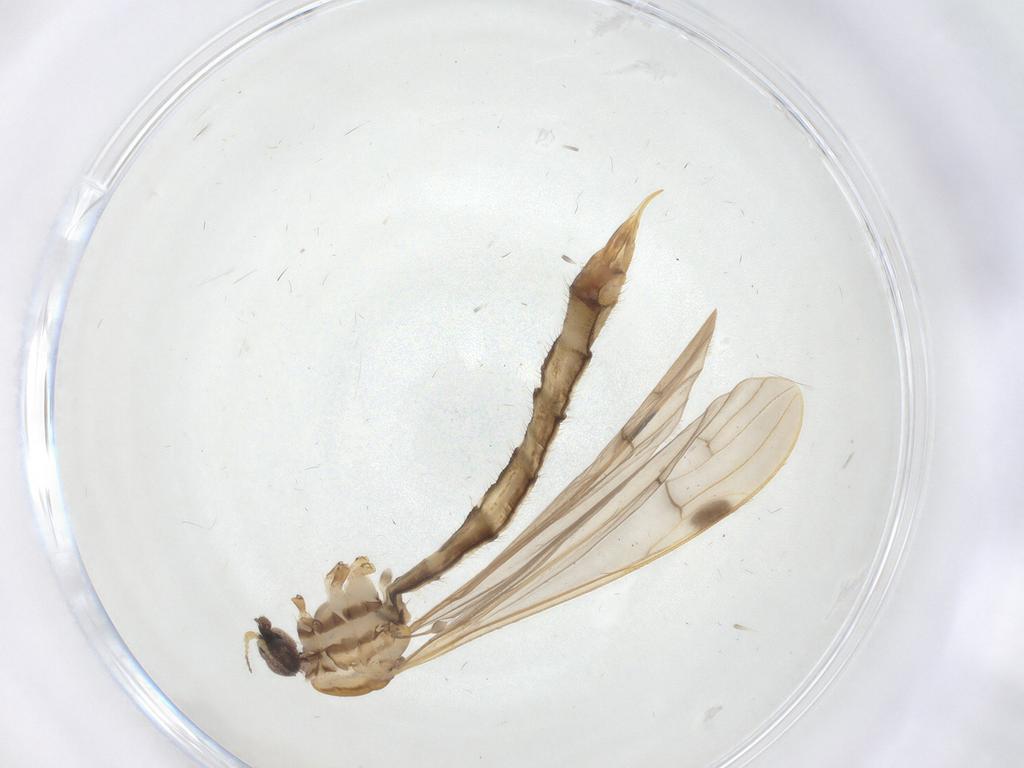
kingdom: Animalia
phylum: Arthropoda
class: Insecta
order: Diptera
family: Limoniidae
